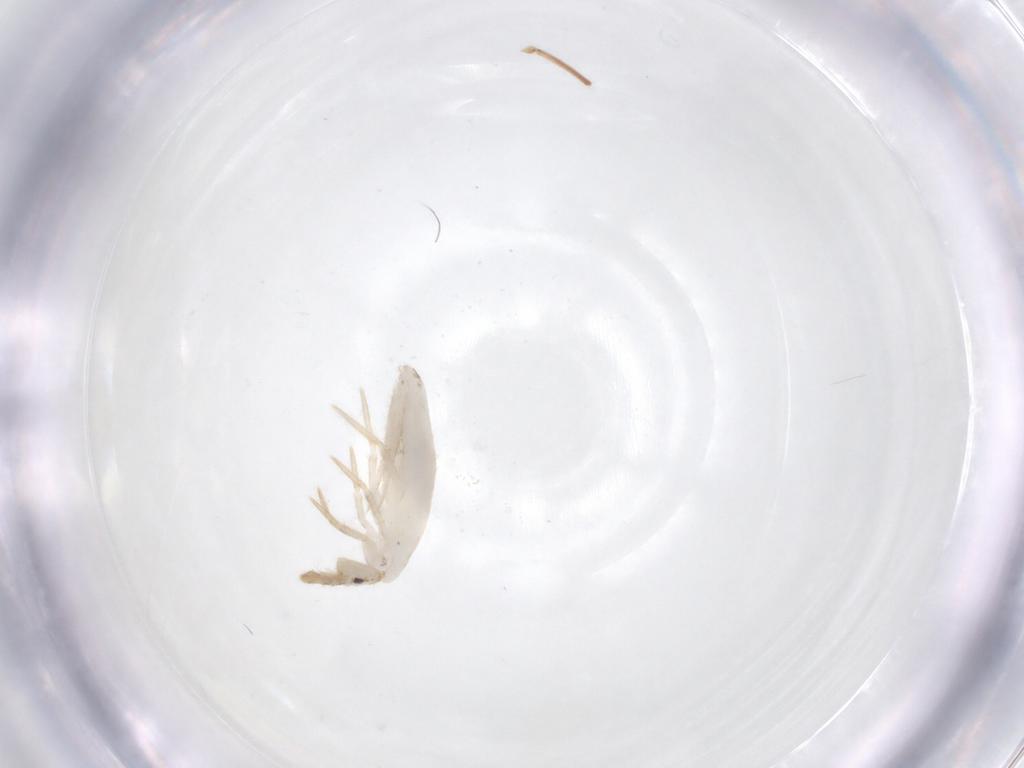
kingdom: Animalia
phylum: Arthropoda
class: Collembola
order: Entomobryomorpha
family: Entomobryidae
